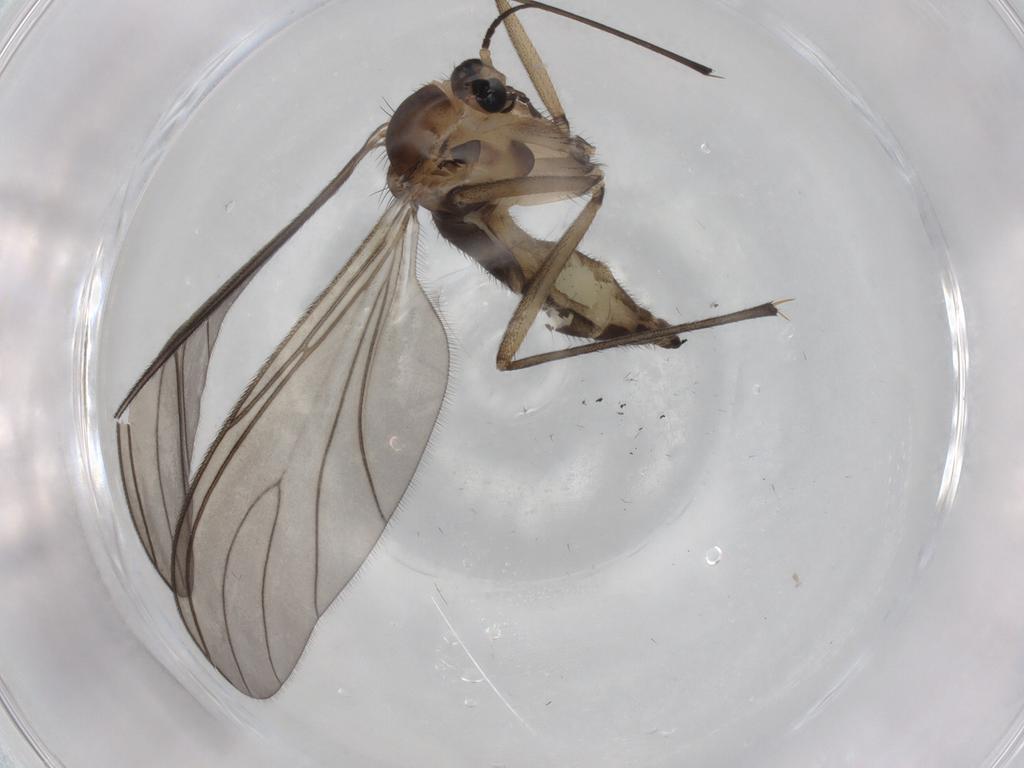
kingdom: Animalia
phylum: Arthropoda
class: Insecta
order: Diptera
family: Sciaridae
